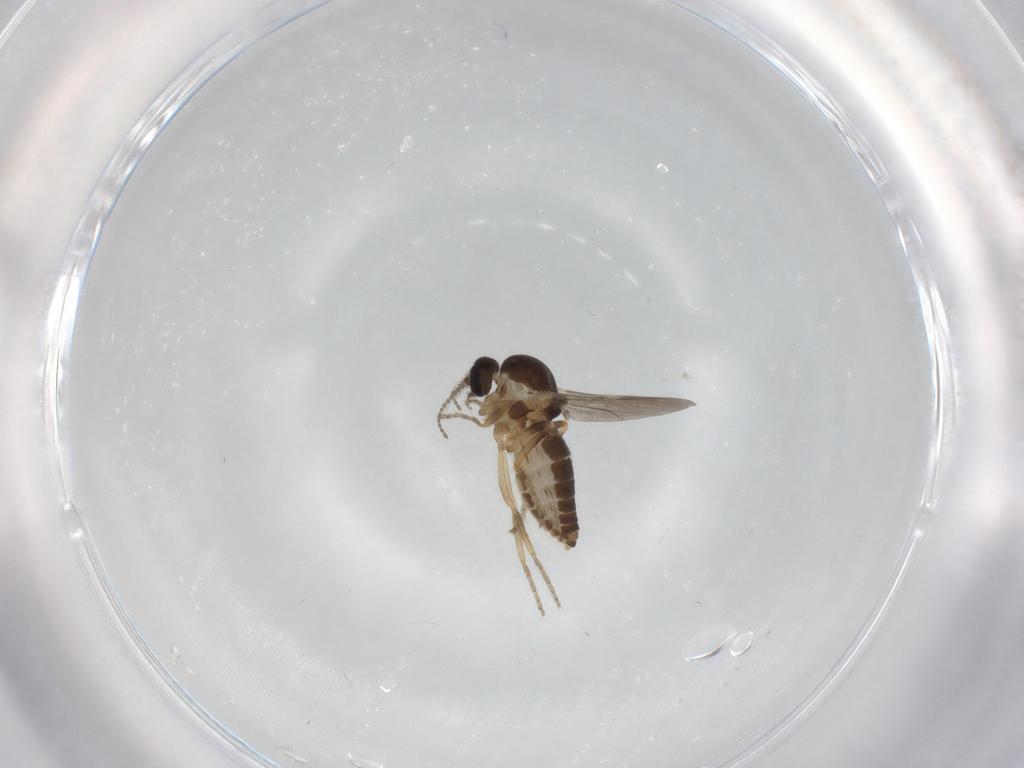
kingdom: Animalia
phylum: Arthropoda
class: Insecta
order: Diptera
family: Ceratopogonidae
